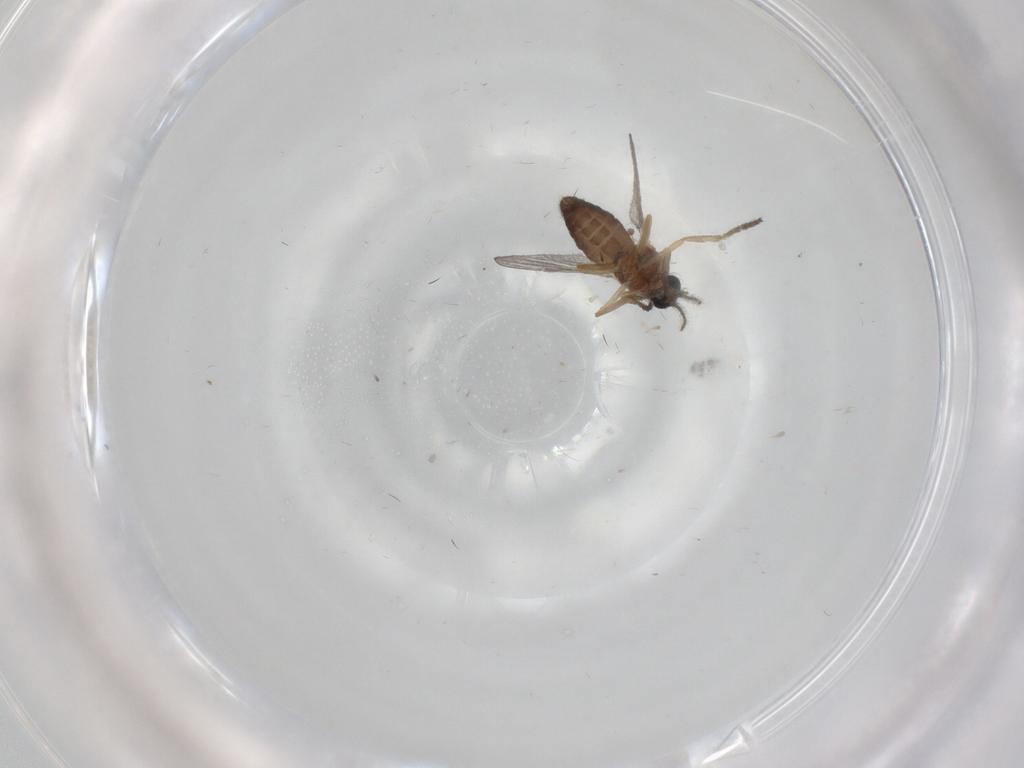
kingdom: Animalia
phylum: Arthropoda
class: Insecta
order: Diptera
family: Ceratopogonidae
